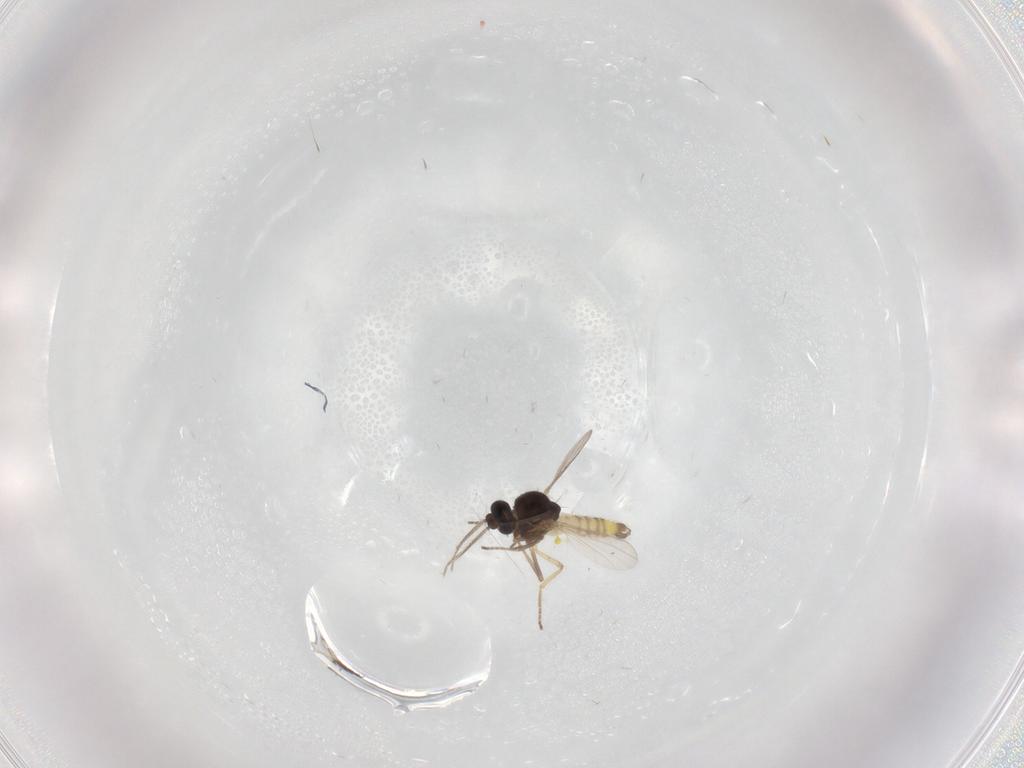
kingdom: Animalia
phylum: Arthropoda
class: Insecta
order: Diptera
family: Ceratopogonidae
